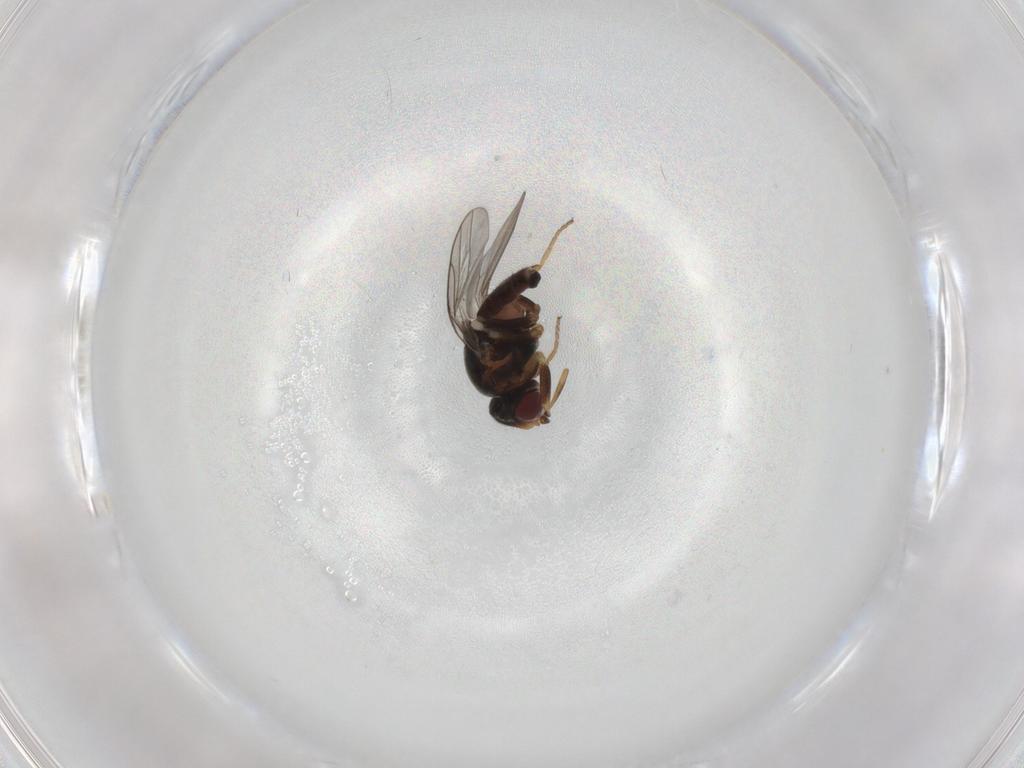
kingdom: Animalia
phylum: Arthropoda
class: Insecta
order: Diptera
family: Chloropidae
